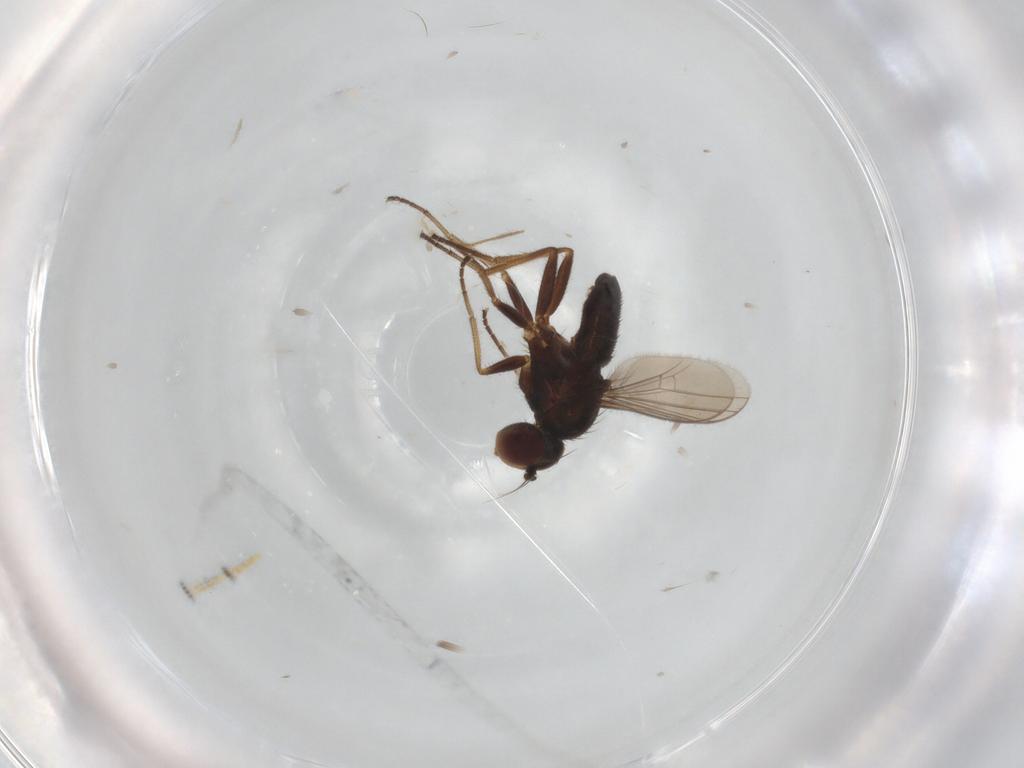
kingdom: Animalia
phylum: Arthropoda
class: Insecta
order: Diptera
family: Dolichopodidae
